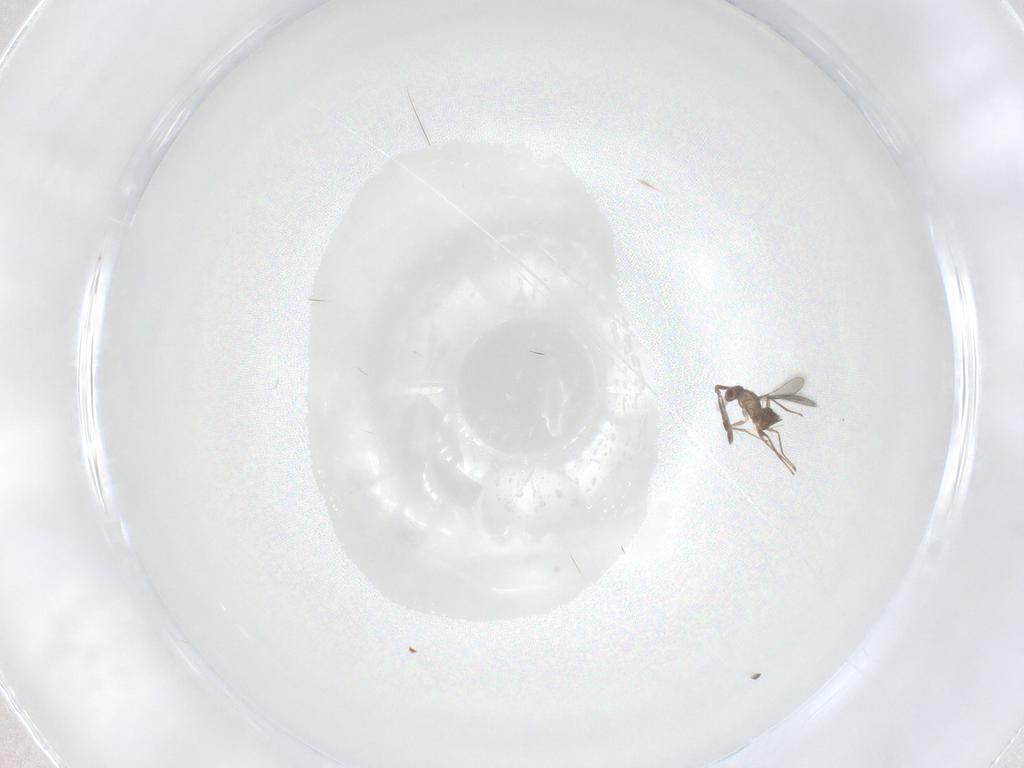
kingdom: Animalia
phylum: Arthropoda
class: Insecta
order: Hymenoptera
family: Mymaridae
